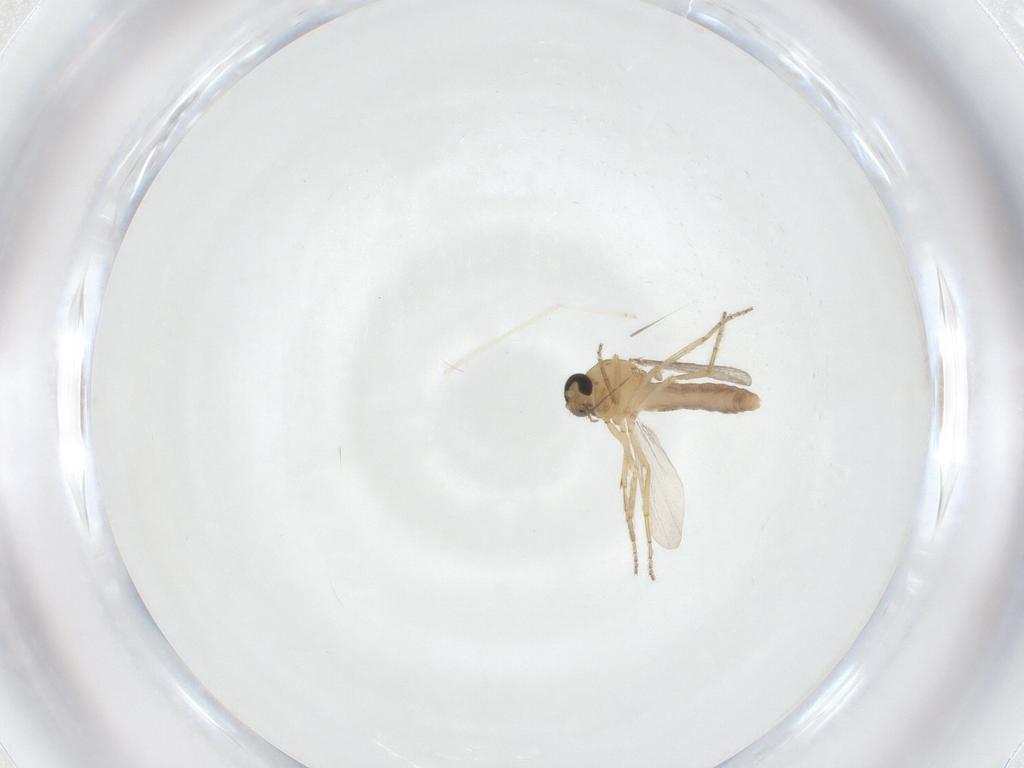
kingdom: Animalia
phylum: Arthropoda
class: Insecta
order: Diptera
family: Ceratopogonidae
